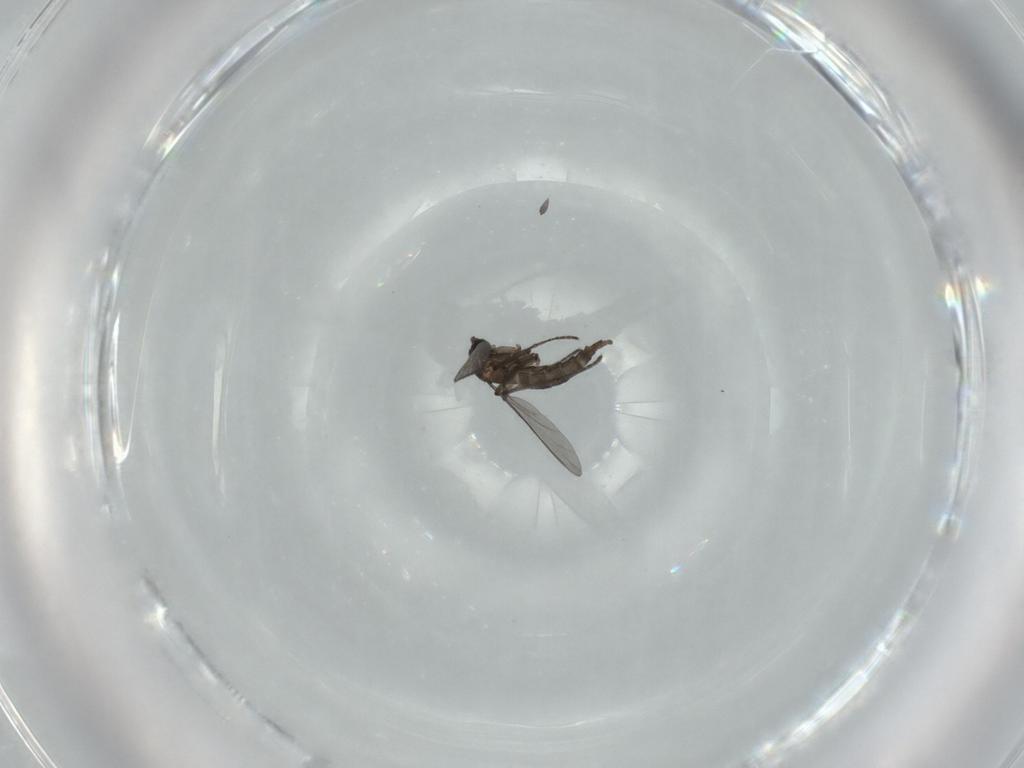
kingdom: Animalia
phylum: Arthropoda
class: Insecta
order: Diptera
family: Sciaridae
